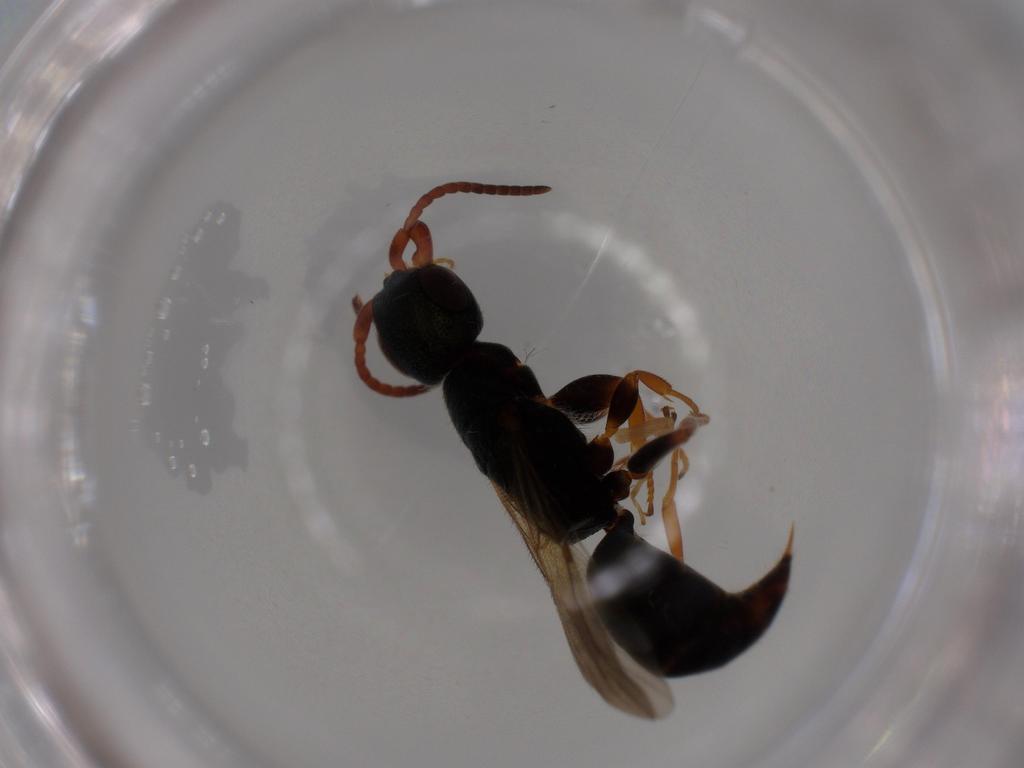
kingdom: Animalia
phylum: Arthropoda
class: Insecta
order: Hymenoptera
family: Bethylidae
